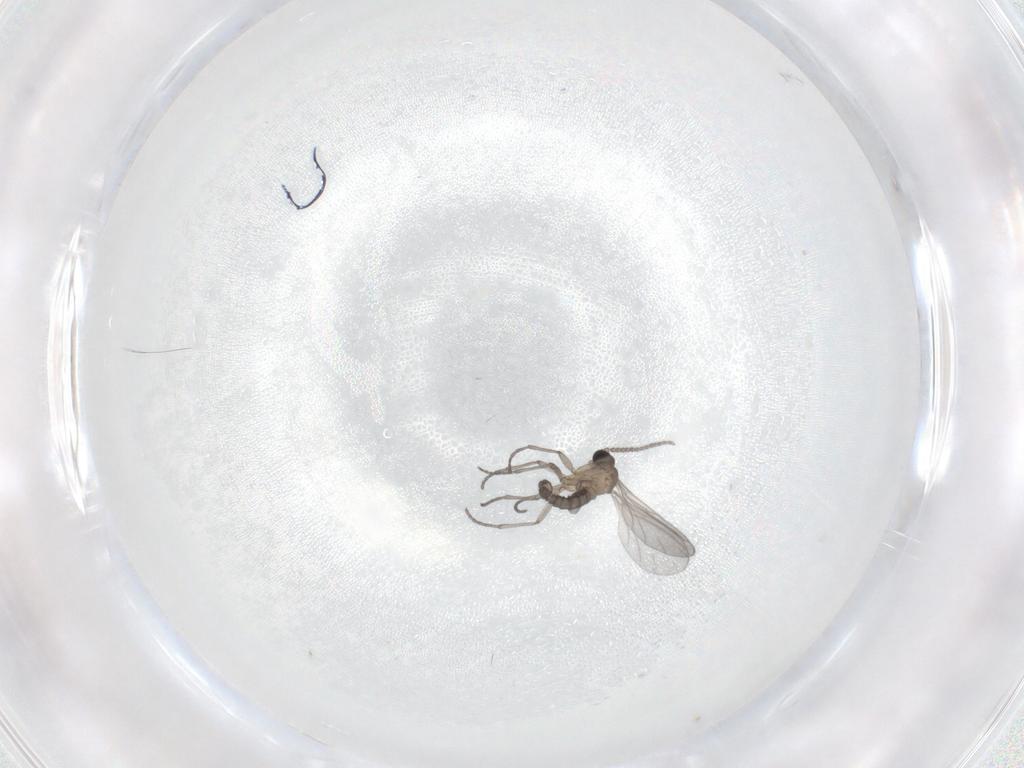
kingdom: Animalia
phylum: Arthropoda
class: Insecta
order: Diptera
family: Sciaridae
